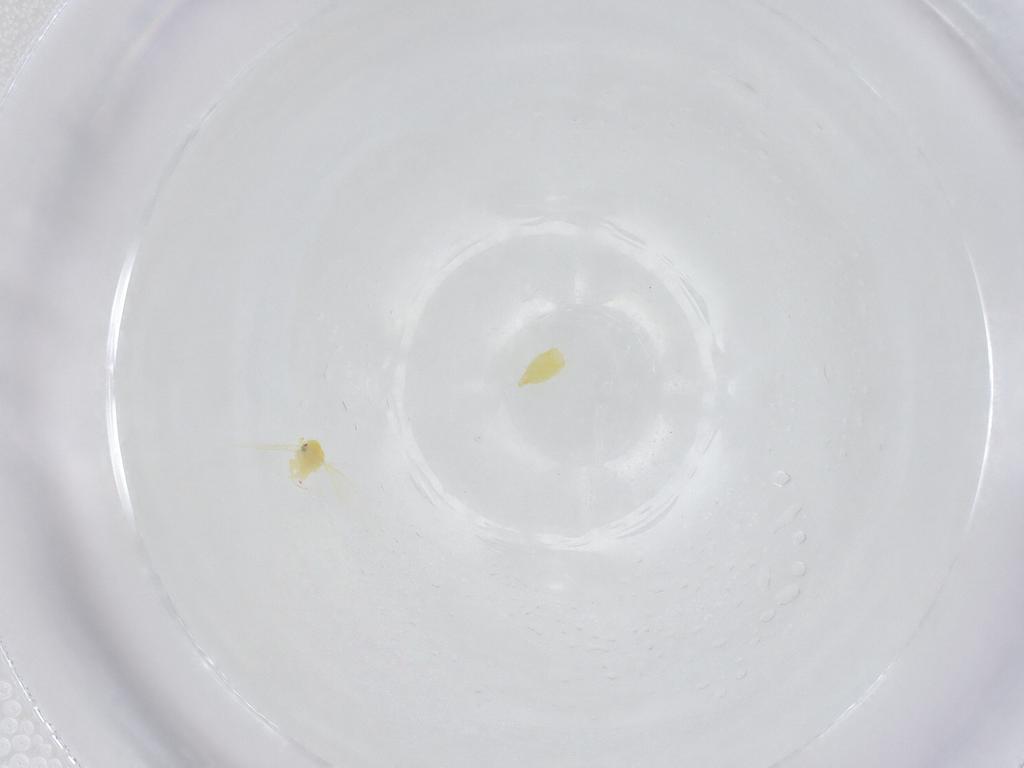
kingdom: Animalia
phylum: Arthropoda
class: Insecta
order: Hemiptera
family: Aleyrodidae
